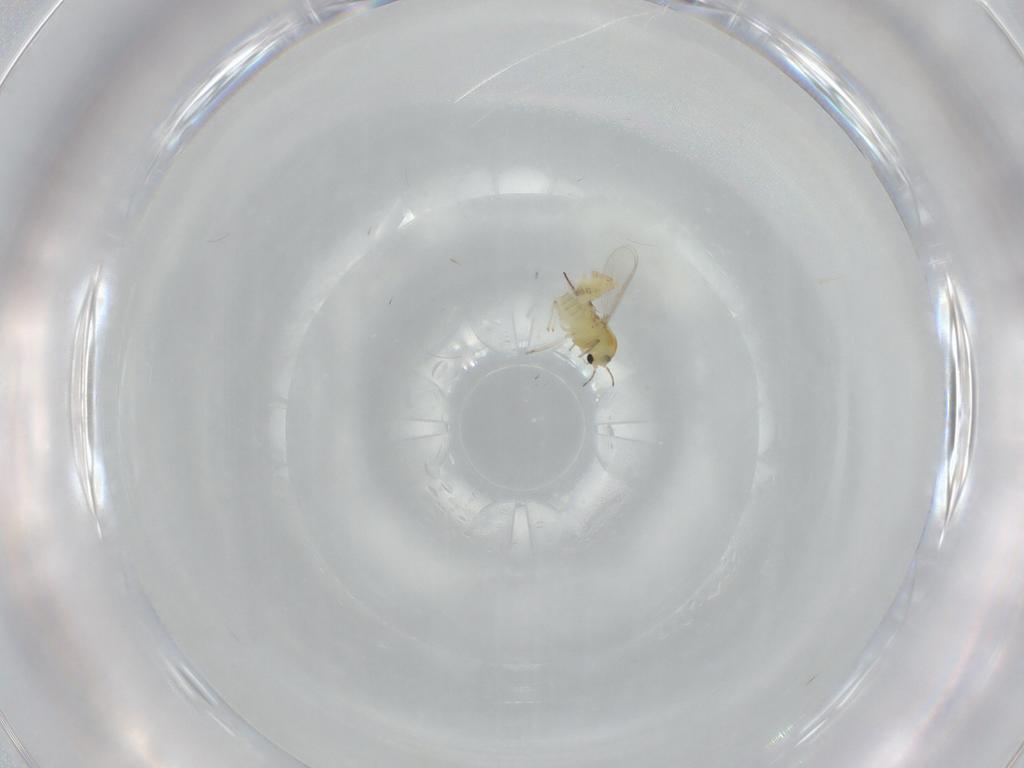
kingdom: Animalia
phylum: Arthropoda
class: Insecta
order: Diptera
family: Chironomidae
